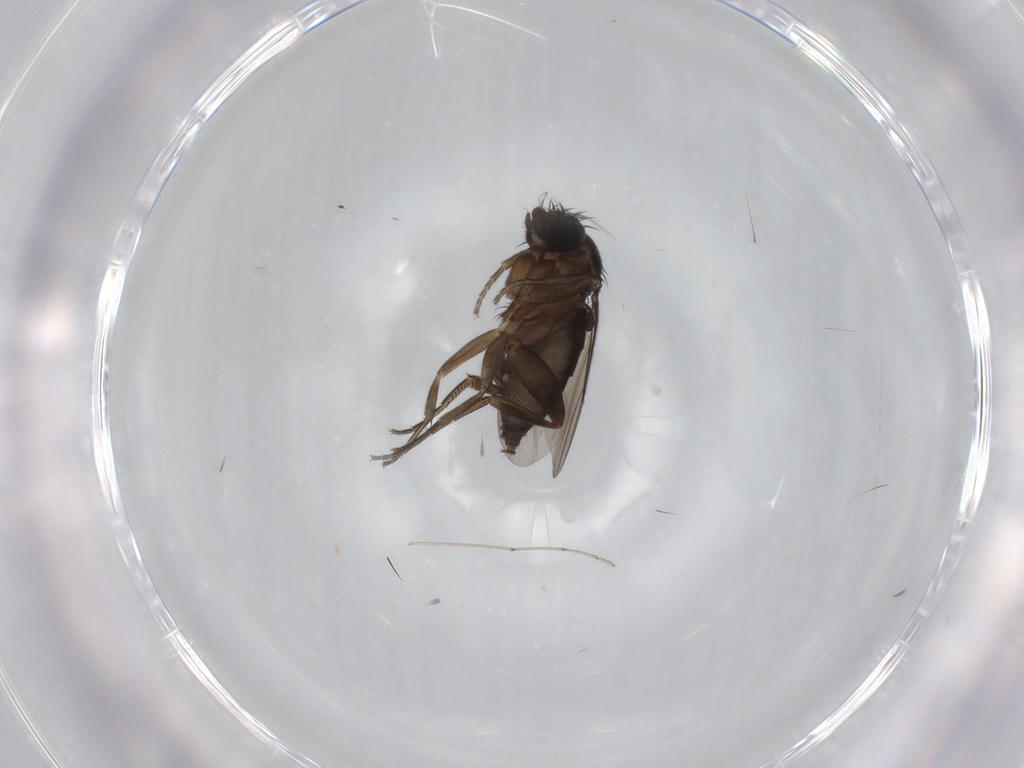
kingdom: Animalia
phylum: Arthropoda
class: Insecta
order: Diptera
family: Phoridae
